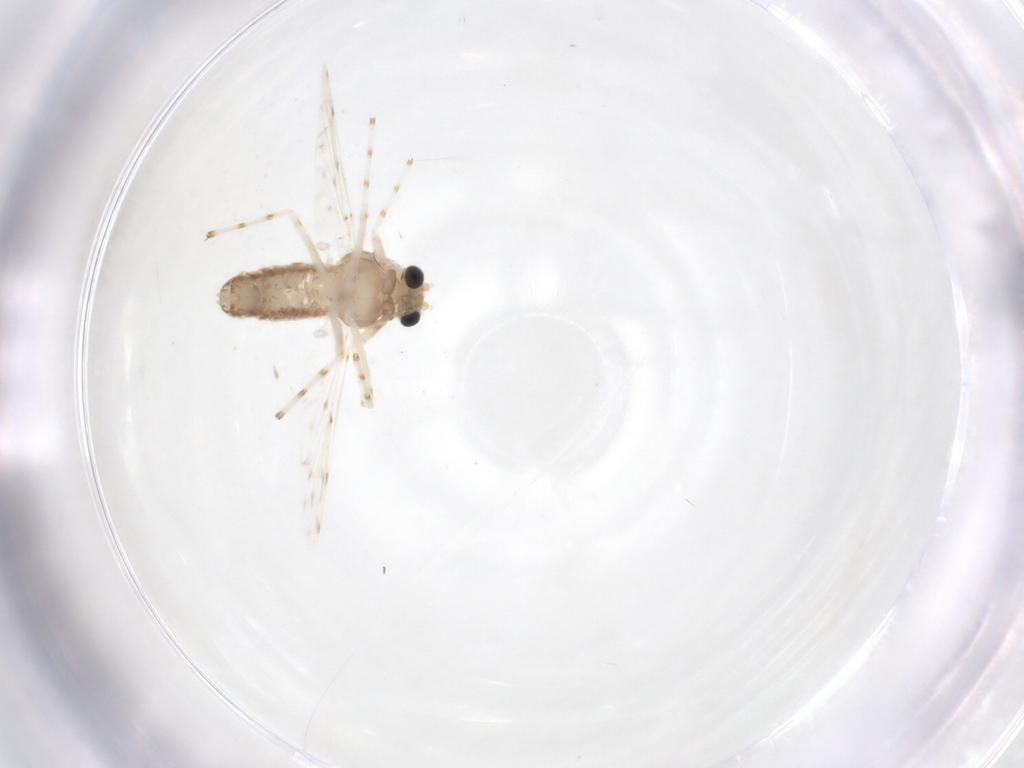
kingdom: Animalia
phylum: Arthropoda
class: Insecta
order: Diptera
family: Chironomidae
